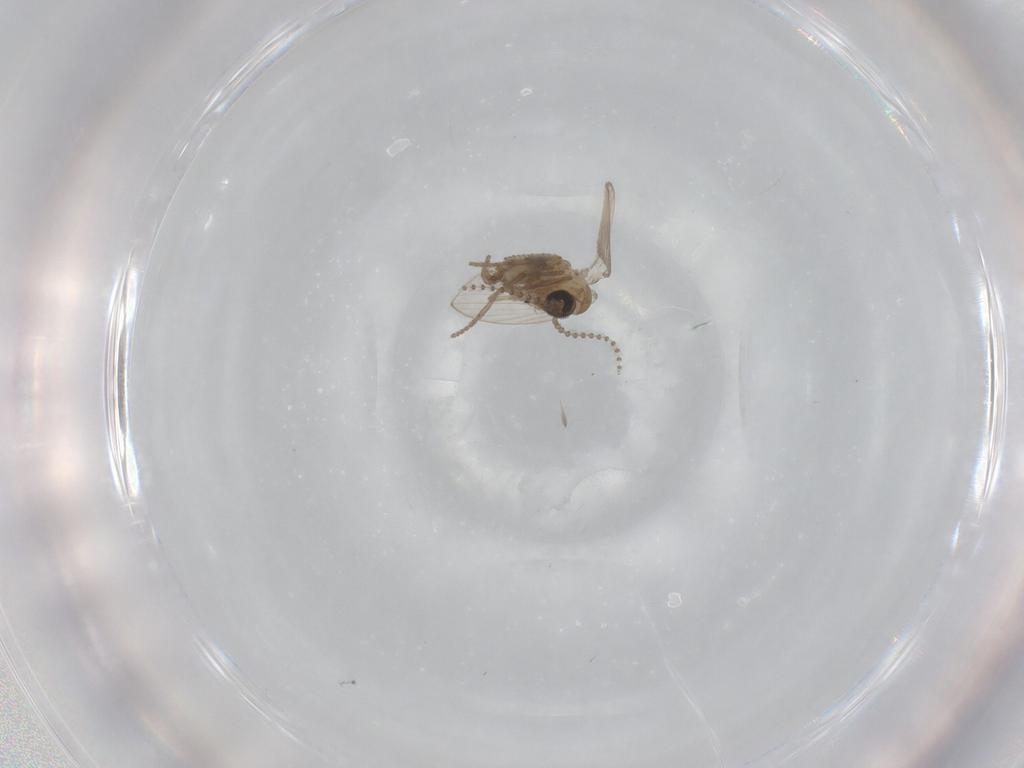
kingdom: Animalia
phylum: Arthropoda
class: Insecta
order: Diptera
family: Psychodidae
